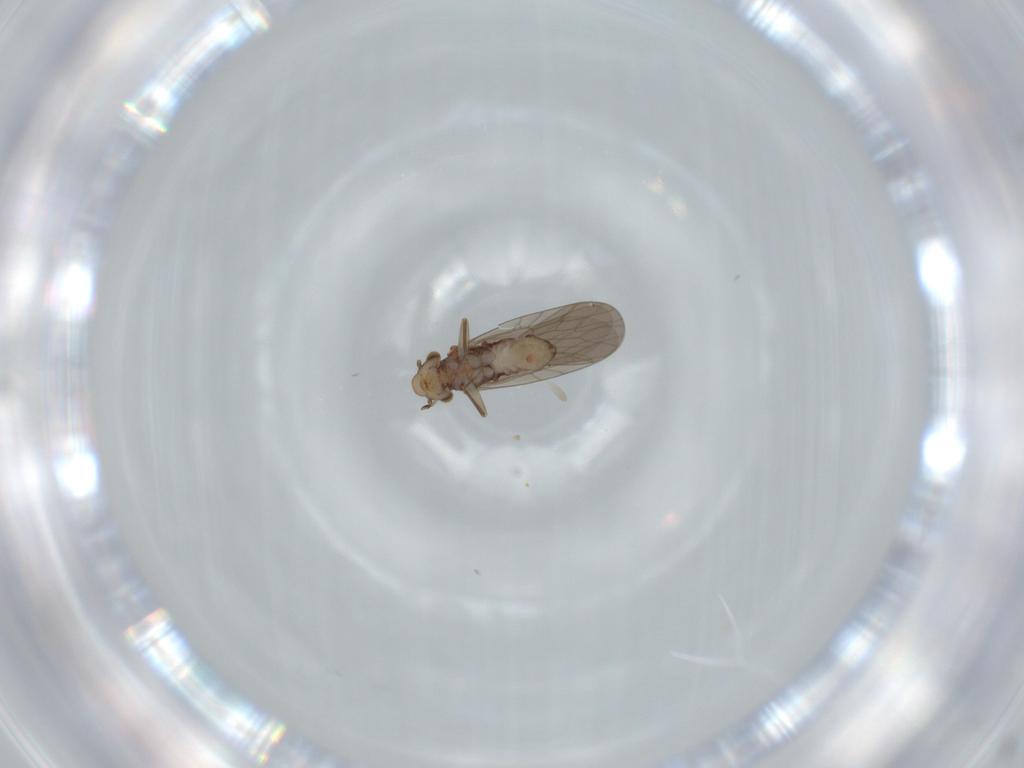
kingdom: Animalia
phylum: Arthropoda
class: Insecta
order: Psocodea
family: Lepidopsocidae
